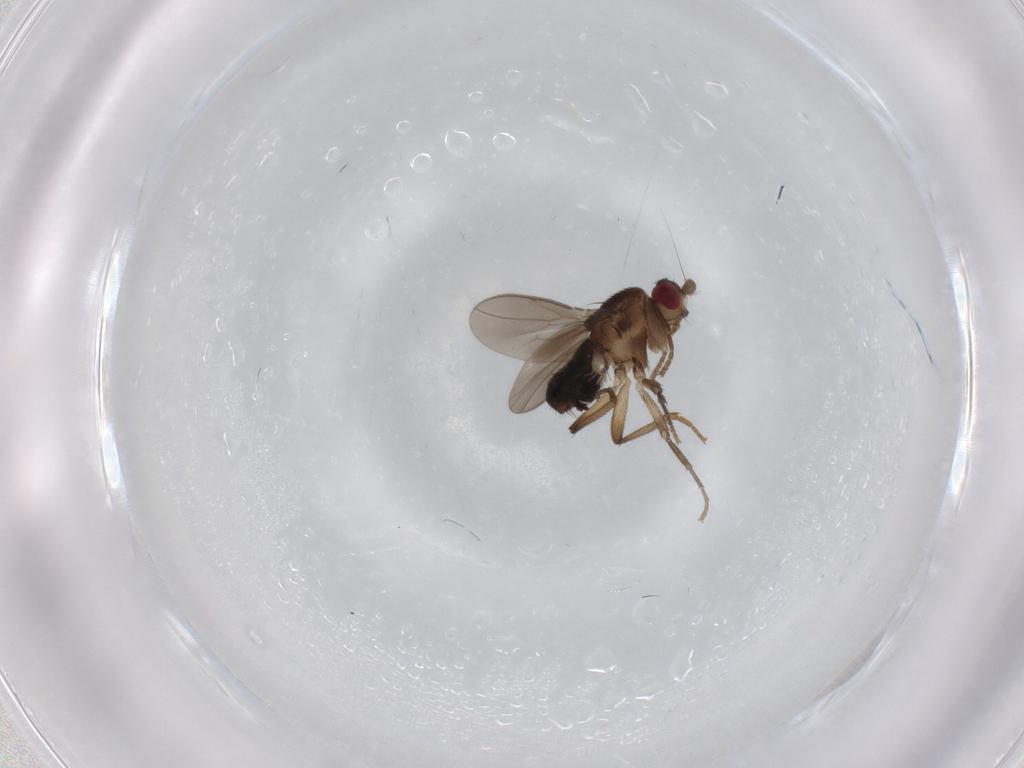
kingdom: Animalia
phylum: Arthropoda
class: Insecta
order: Diptera
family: Sphaeroceridae
